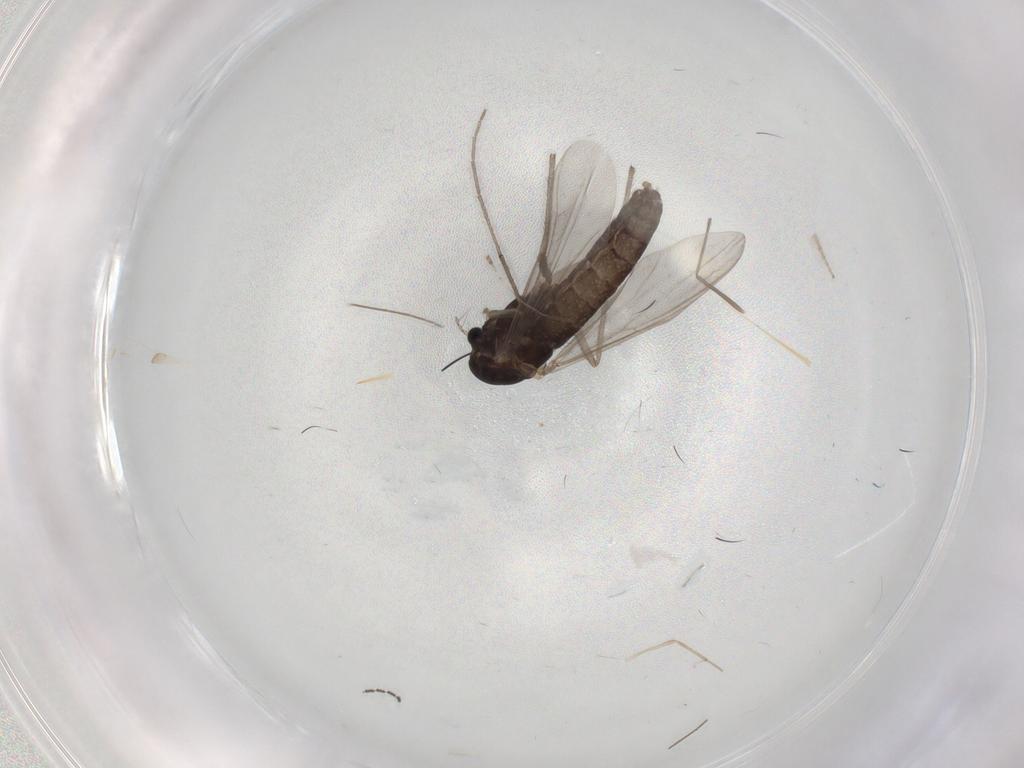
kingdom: Animalia
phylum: Arthropoda
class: Insecta
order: Diptera
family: Chironomidae
